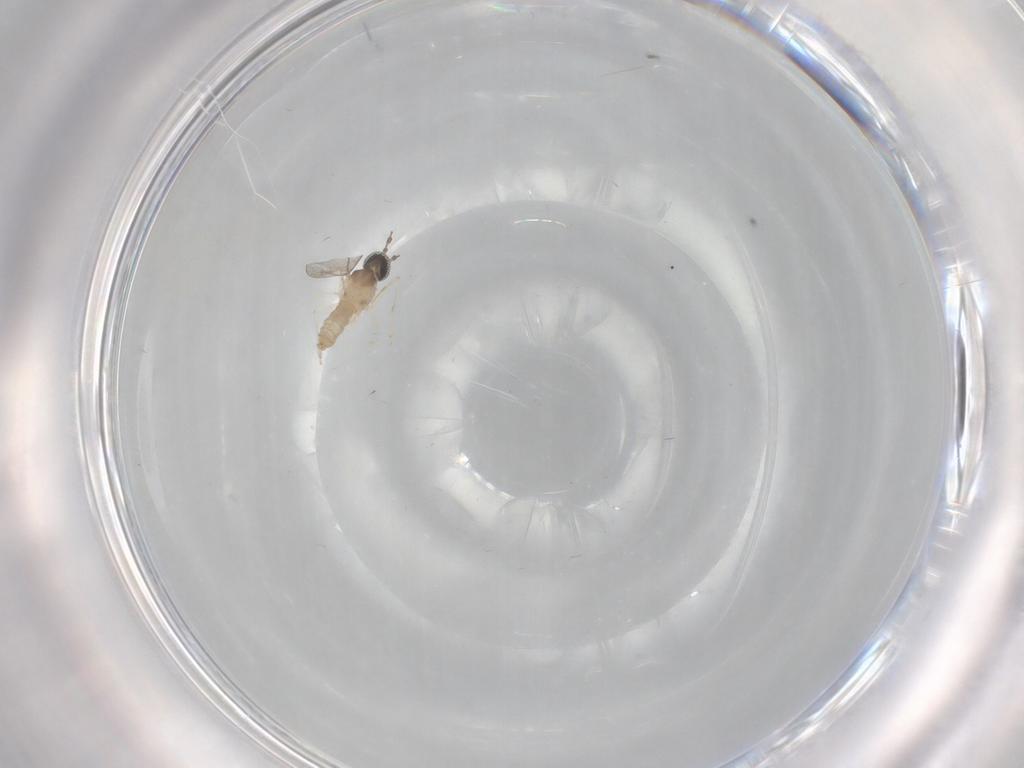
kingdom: Animalia
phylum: Arthropoda
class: Insecta
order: Diptera
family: Cecidomyiidae
